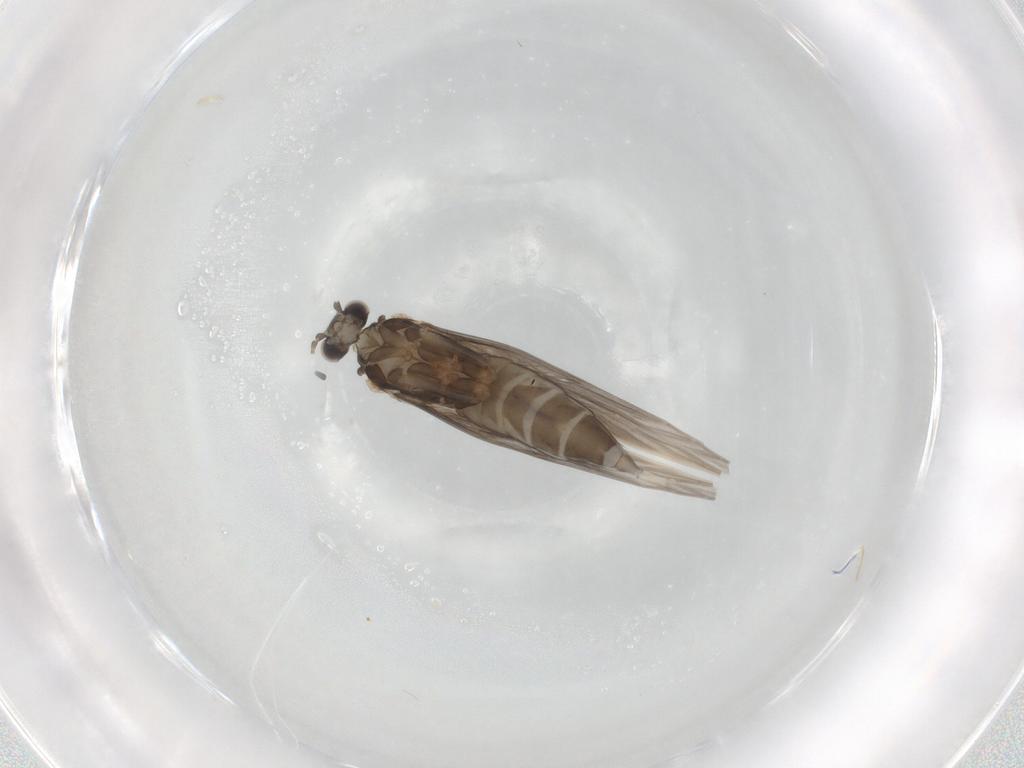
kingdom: Animalia
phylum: Arthropoda
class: Insecta
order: Trichoptera
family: Hydroptilidae
